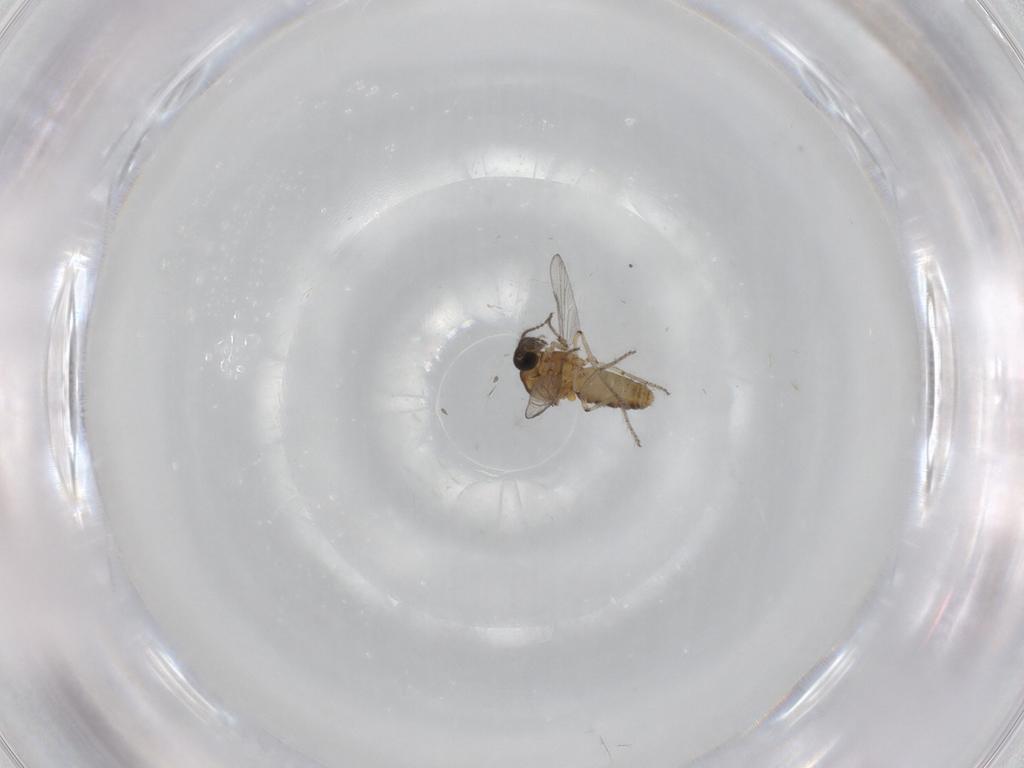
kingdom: Animalia
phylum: Arthropoda
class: Insecta
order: Diptera
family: Ceratopogonidae
